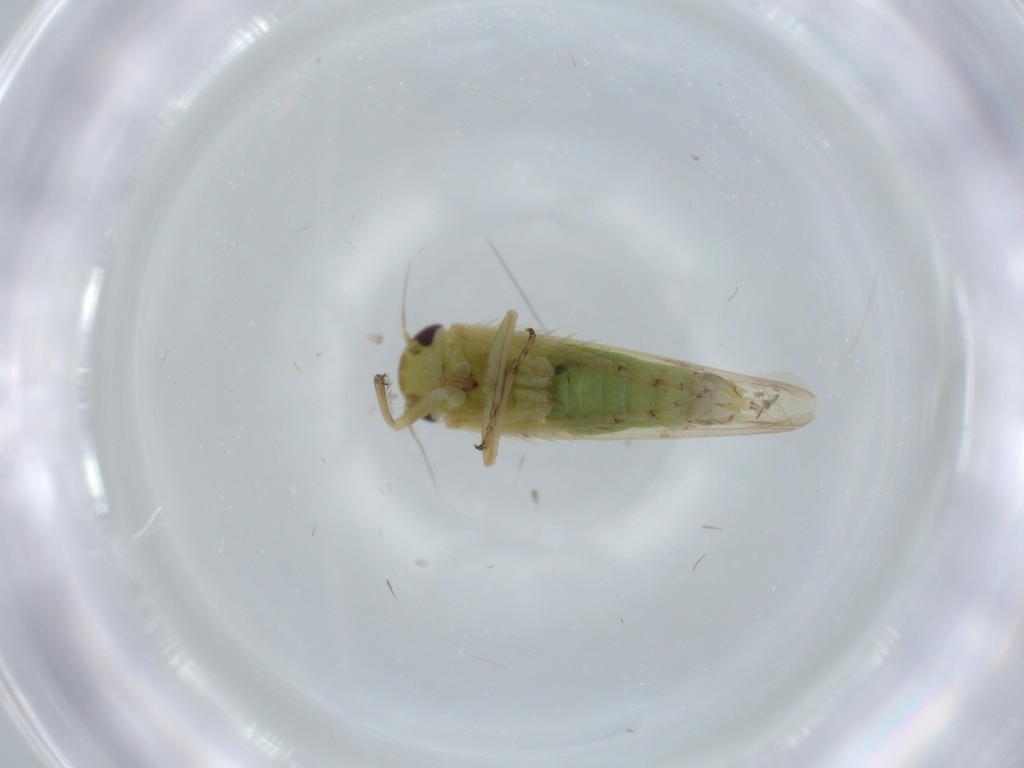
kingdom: Animalia
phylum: Arthropoda
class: Insecta
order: Hemiptera
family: Cicadellidae
